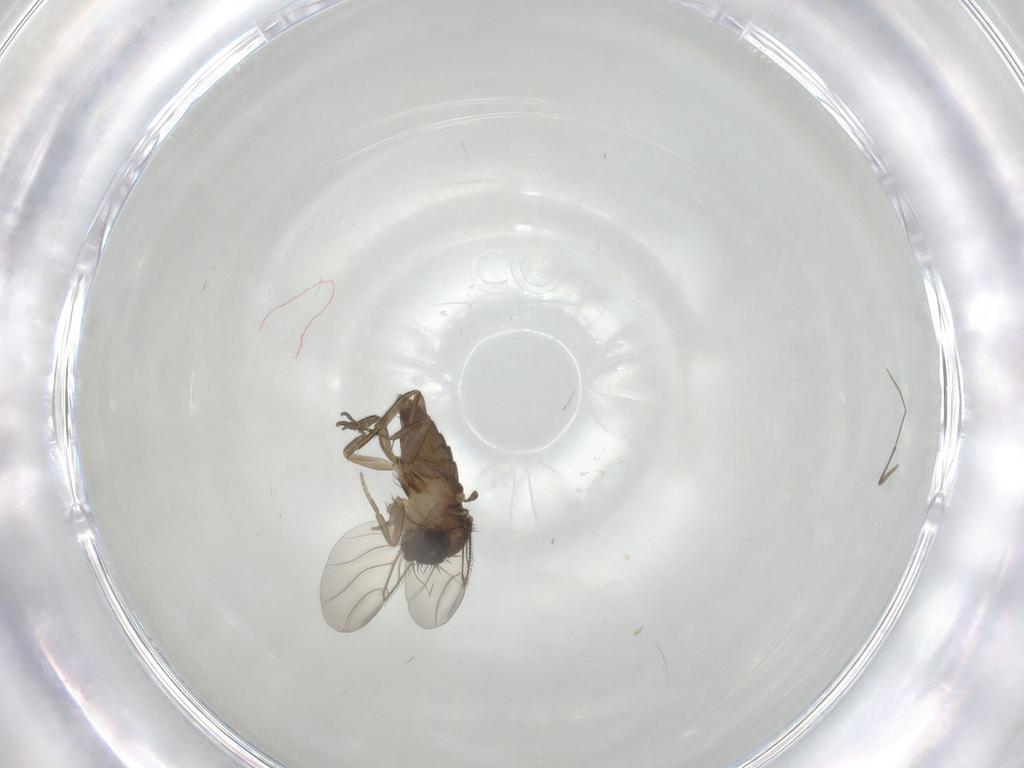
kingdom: Animalia
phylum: Arthropoda
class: Insecta
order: Diptera
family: Phoridae
